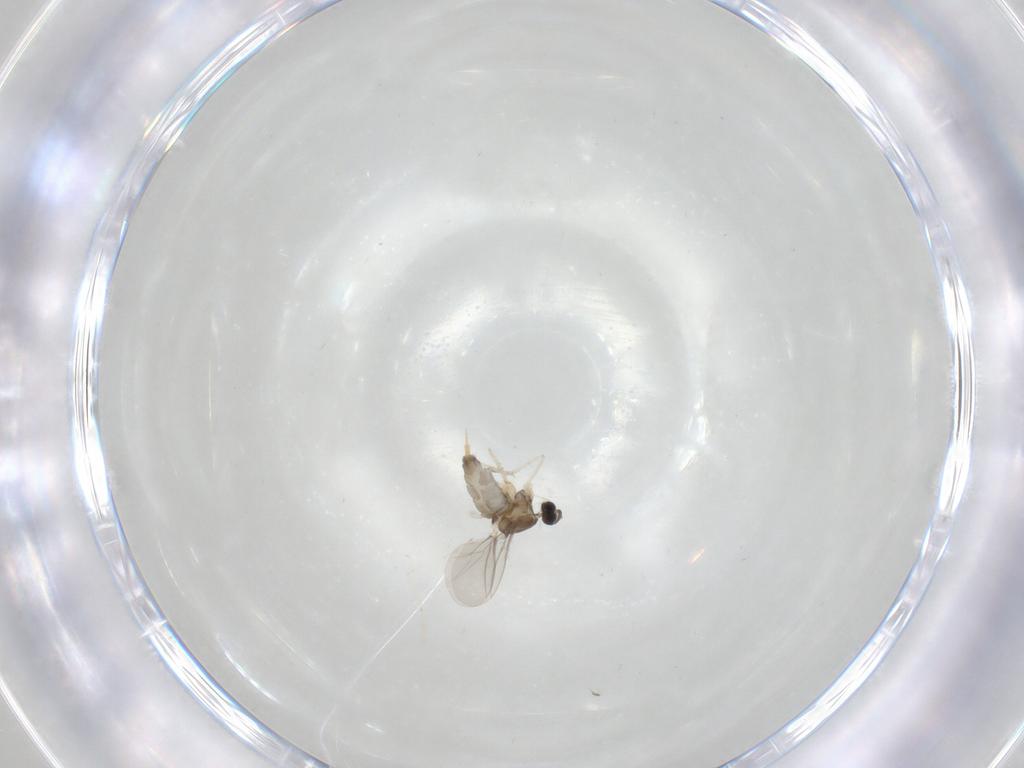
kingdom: Animalia
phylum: Arthropoda
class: Insecta
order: Diptera
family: Cecidomyiidae
